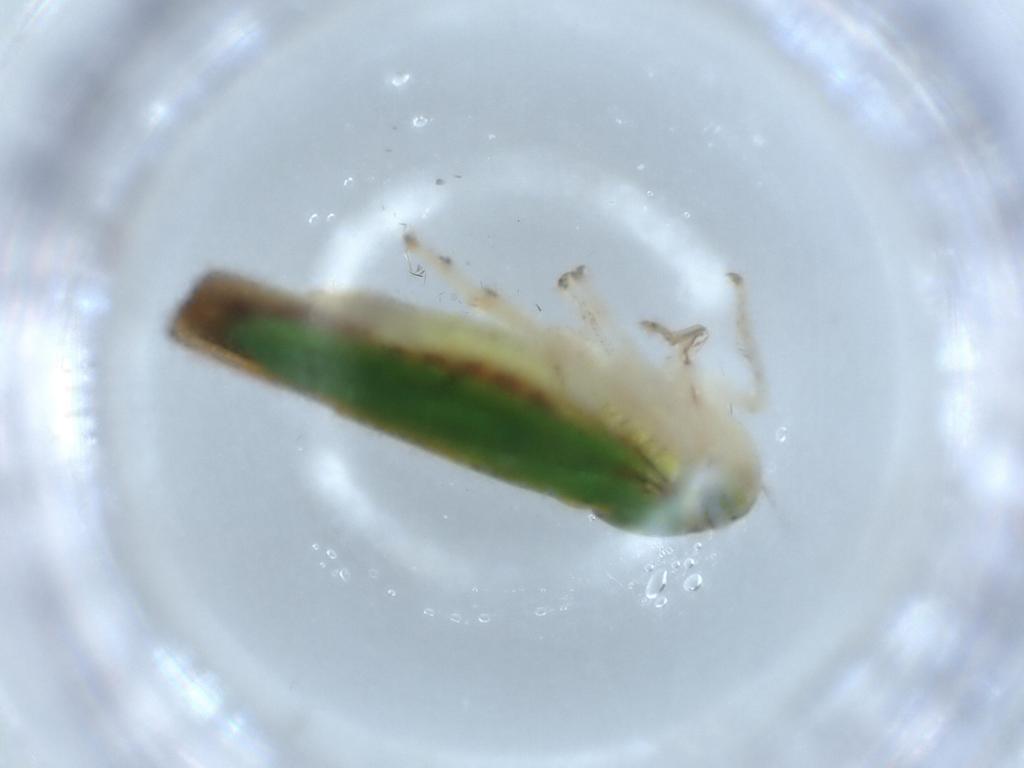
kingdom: Animalia
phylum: Arthropoda
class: Insecta
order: Hemiptera
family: Cicadellidae
